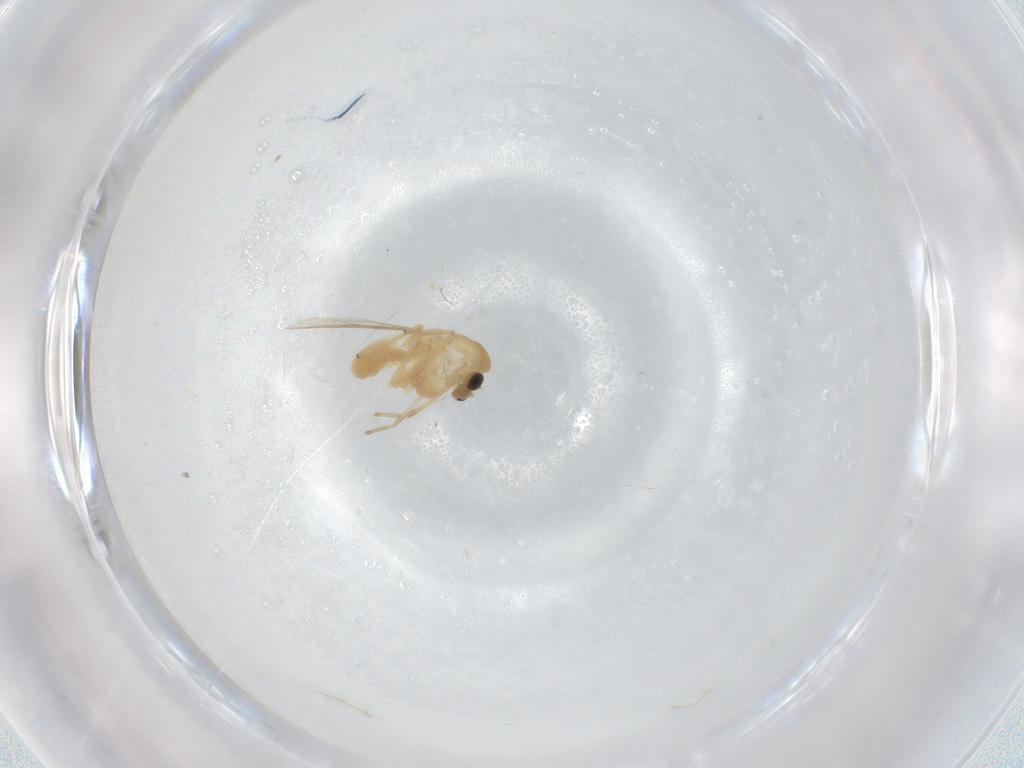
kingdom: Animalia
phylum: Arthropoda
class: Insecta
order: Diptera
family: Chironomidae
